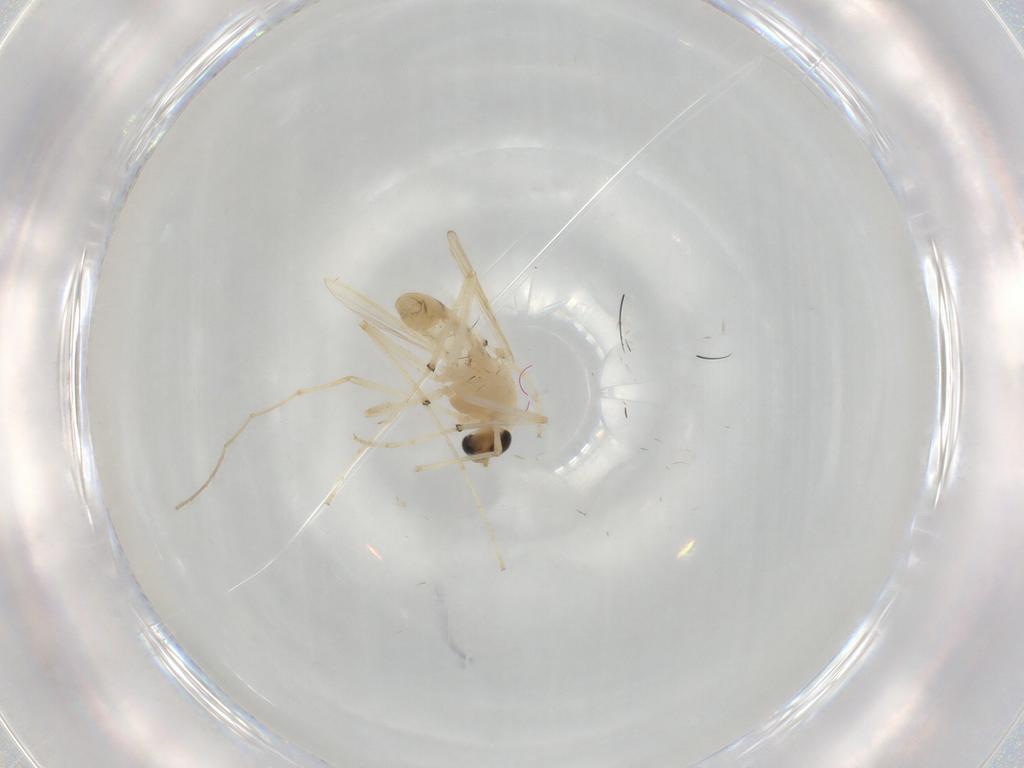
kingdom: Animalia
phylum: Arthropoda
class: Insecta
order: Diptera
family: Chironomidae
